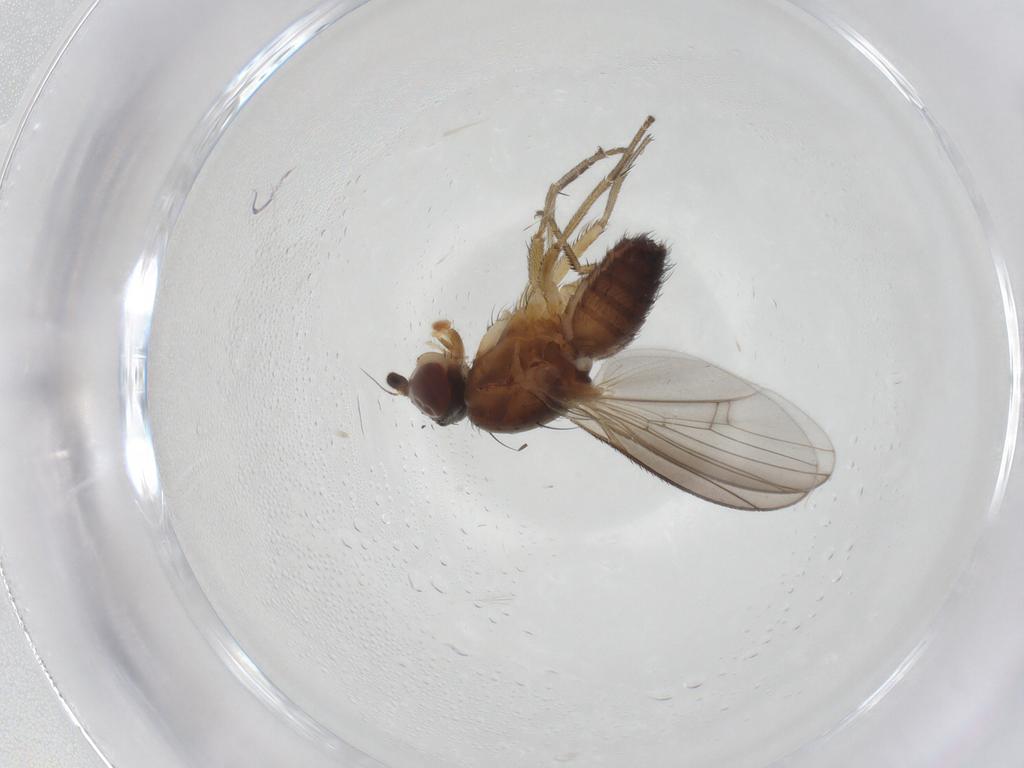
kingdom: Animalia
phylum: Arthropoda
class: Insecta
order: Diptera
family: Heleomyzidae
